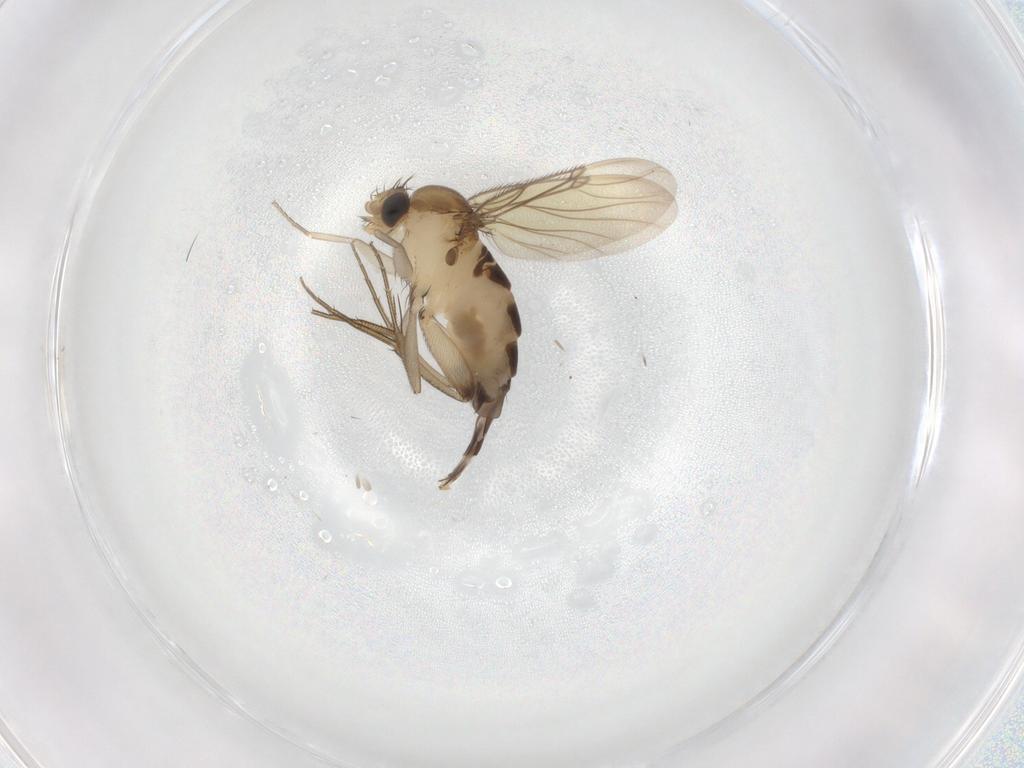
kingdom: Animalia
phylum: Arthropoda
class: Insecta
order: Diptera
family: Phoridae
